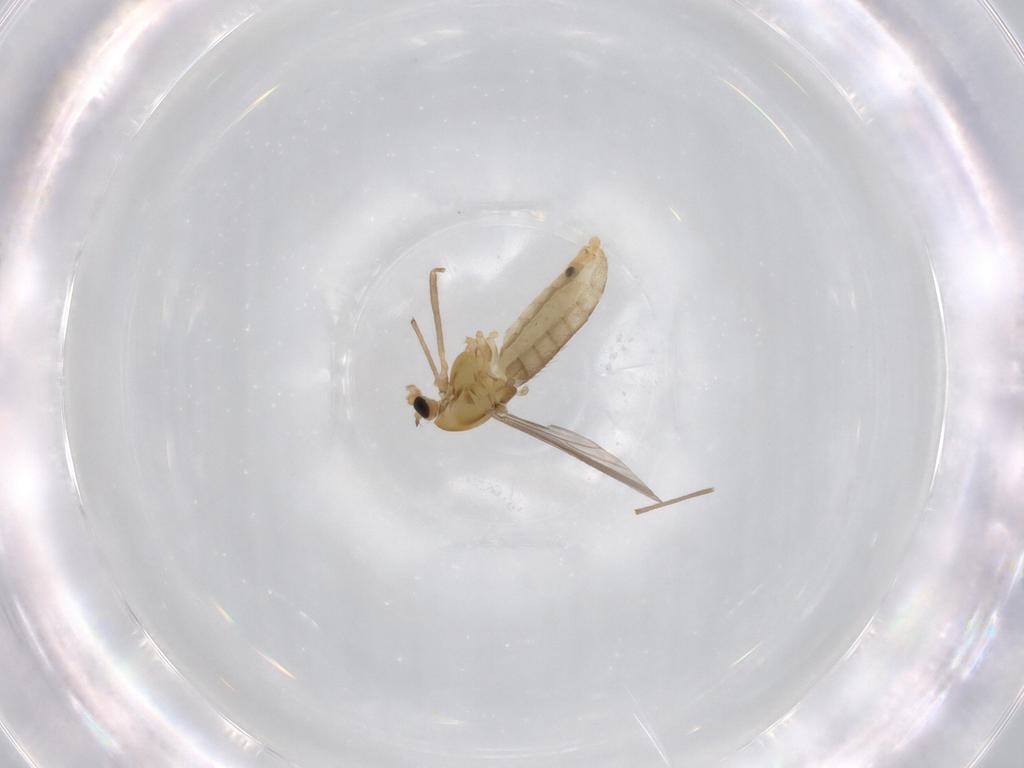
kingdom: Animalia
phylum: Arthropoda
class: Insecta
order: Diptera
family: Chironomidae
